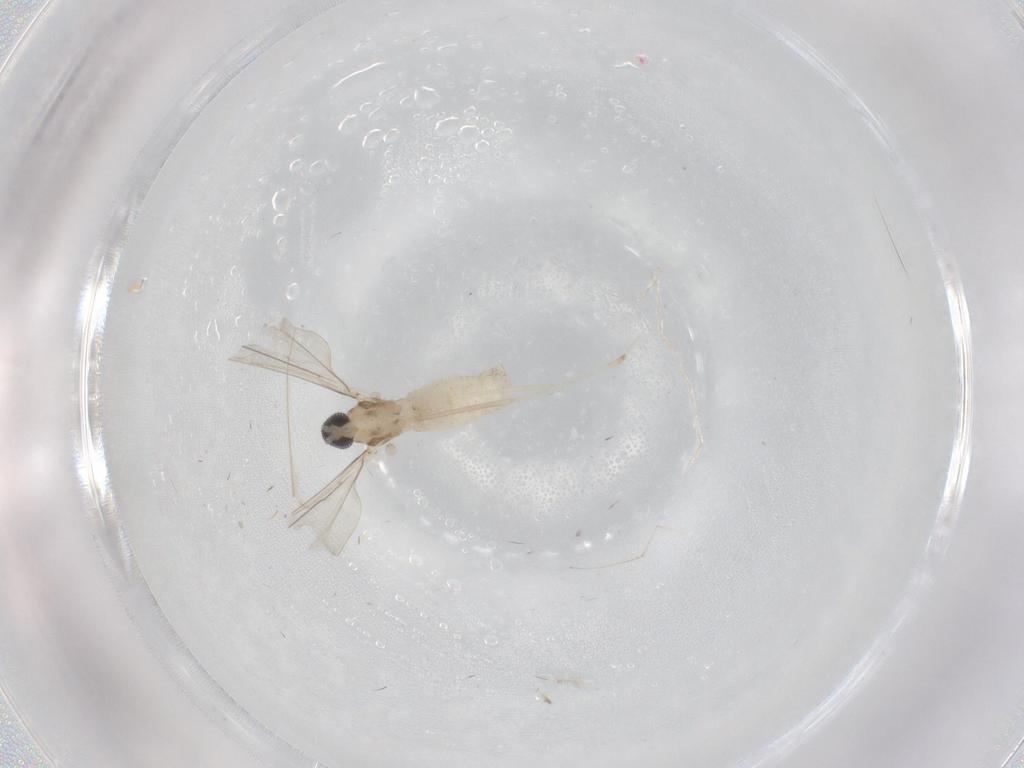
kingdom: Animalia
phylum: Arthropoda
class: Insecta
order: Diptera
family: Cecidomyiidae
